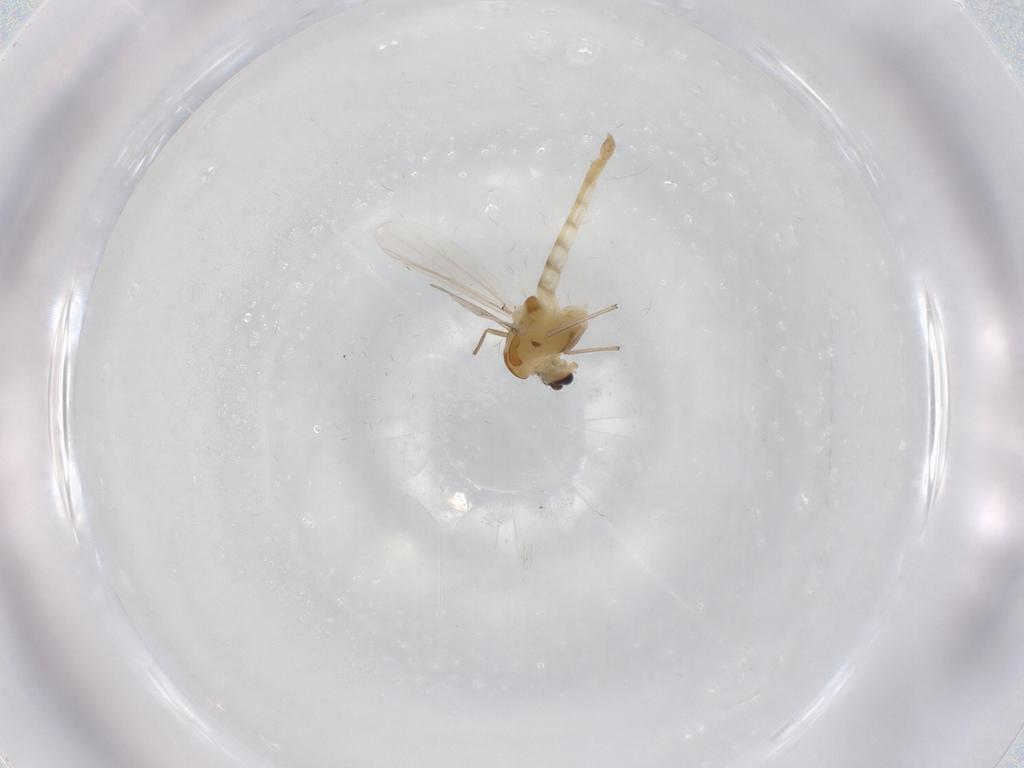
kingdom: Animalia
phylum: Arthropoda
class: Insecta
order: Diptera
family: Chironomidae
